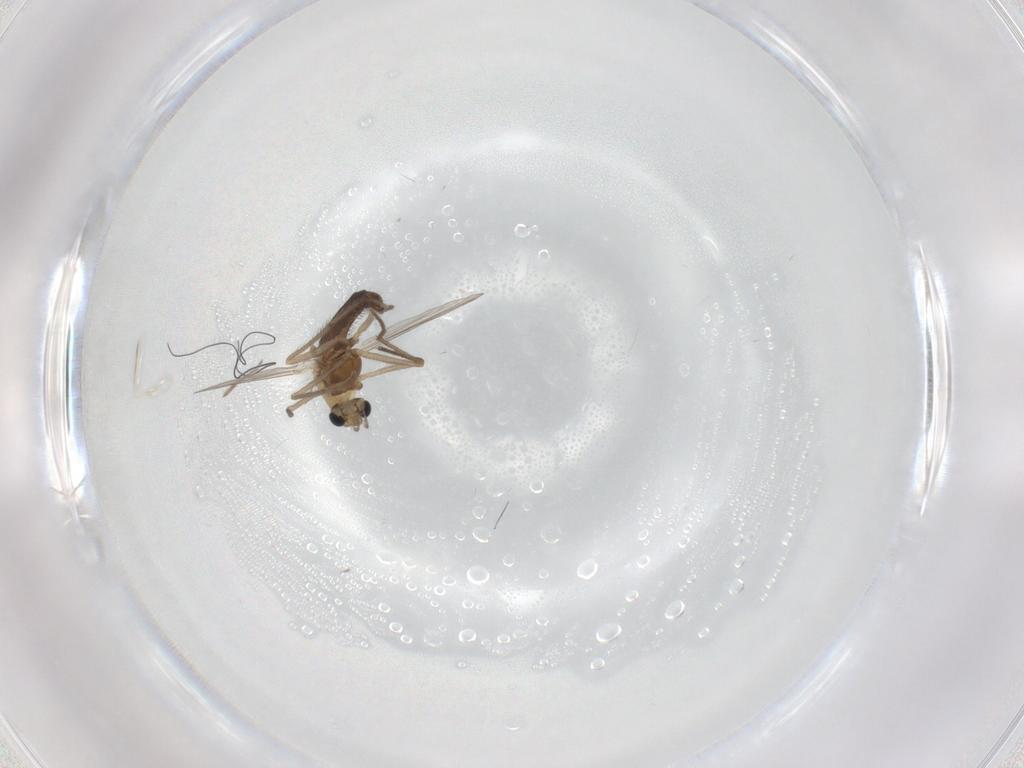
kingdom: Animalia
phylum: Arthropoda
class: Insecta
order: Diptera
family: Chironomidae
